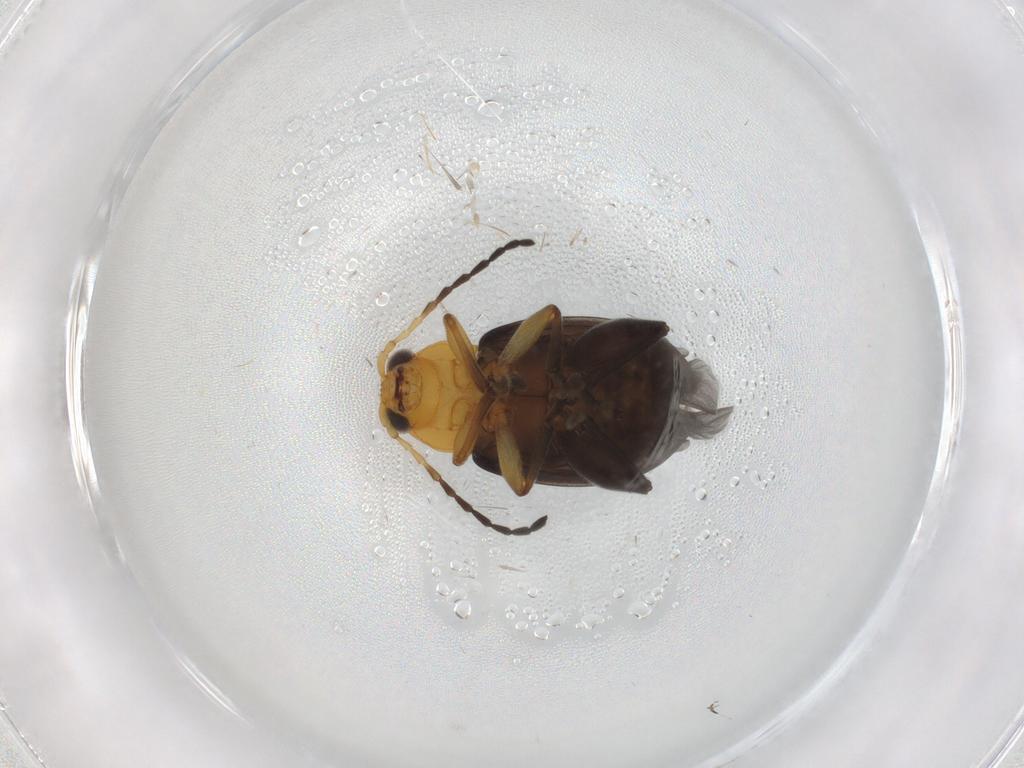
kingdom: Animalia
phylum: Arthropoda
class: Insecta
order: Coleoptera
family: Chrysomelidae
